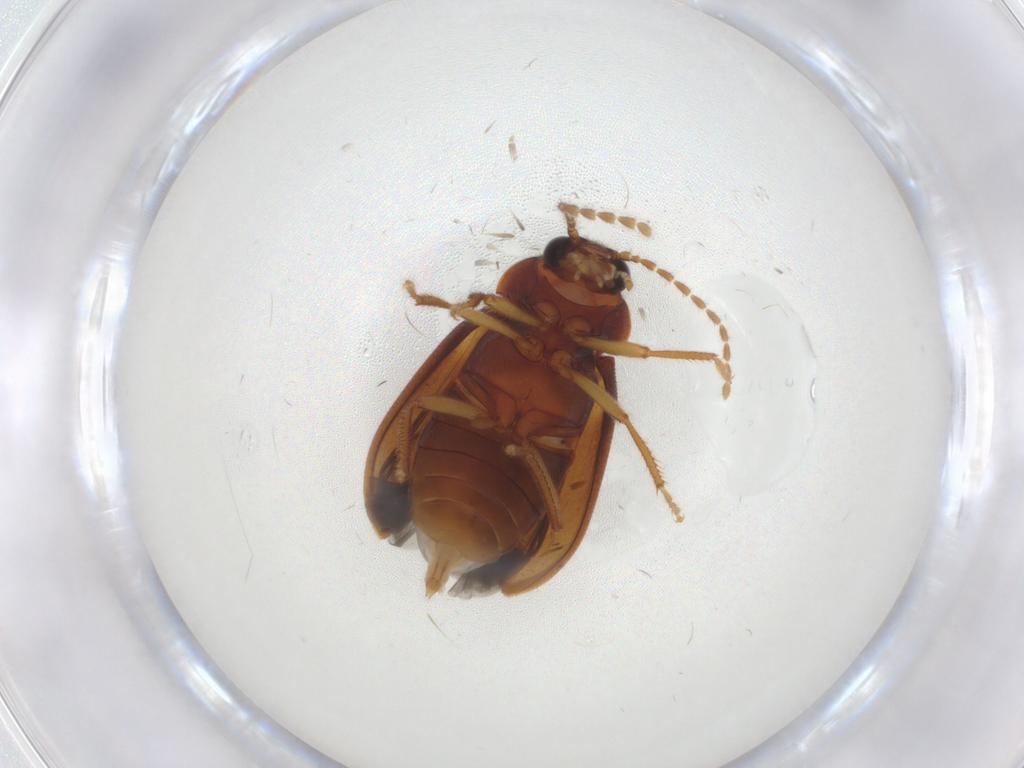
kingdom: Animalia
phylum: Arthropoda
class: Insecta
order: Coleoptera
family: Ptilodactylidae
